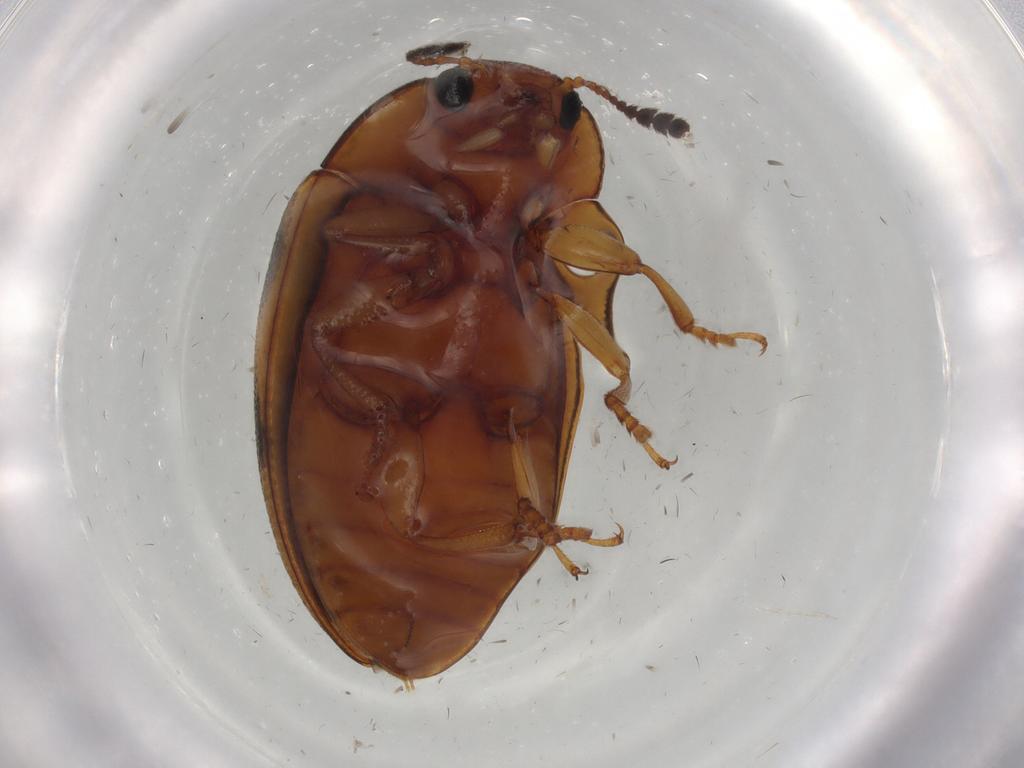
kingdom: Animalia
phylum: Arthropoda
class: Insecta
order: Coleoptera
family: Erotylidae
